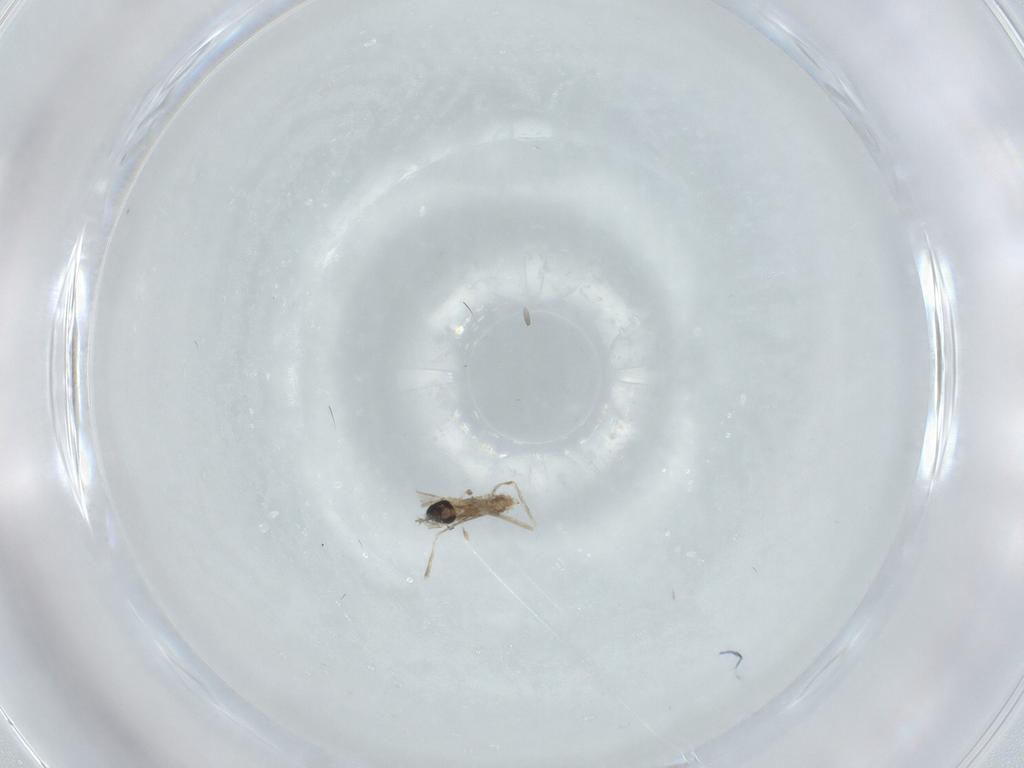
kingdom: Animalia
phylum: Arthropoda
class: Insecta
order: Diptera
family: Cecidomyiidae
